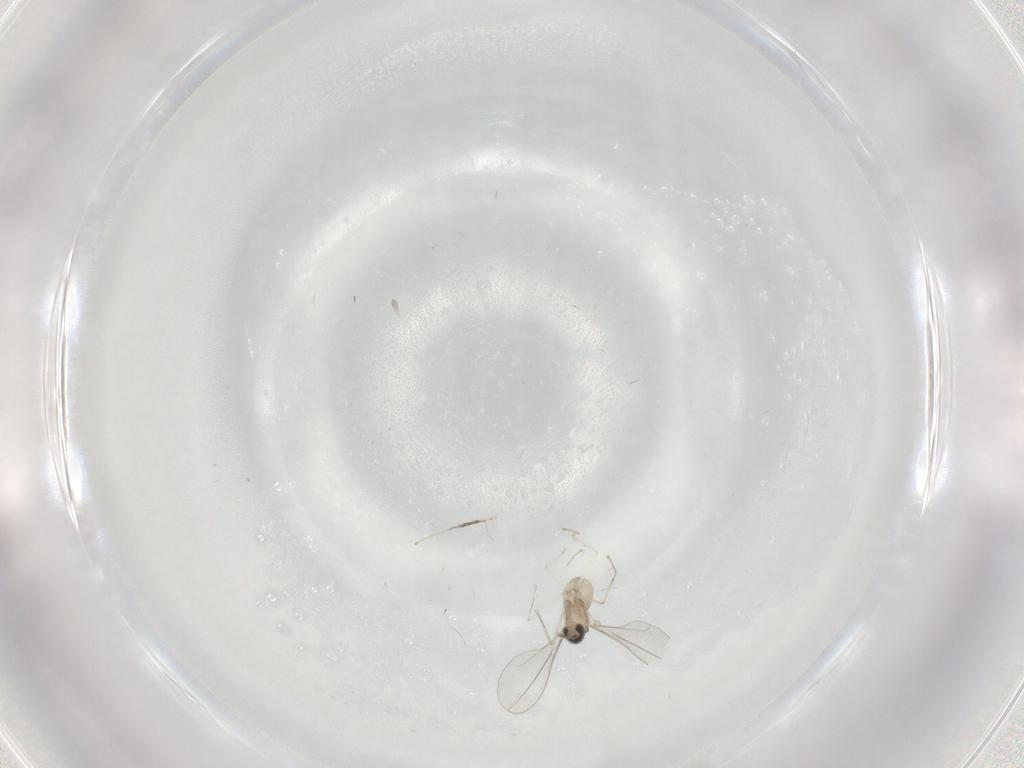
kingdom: Animalia
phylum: Arthropoda
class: Insecta
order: Diptera
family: Cecidomyiidae
